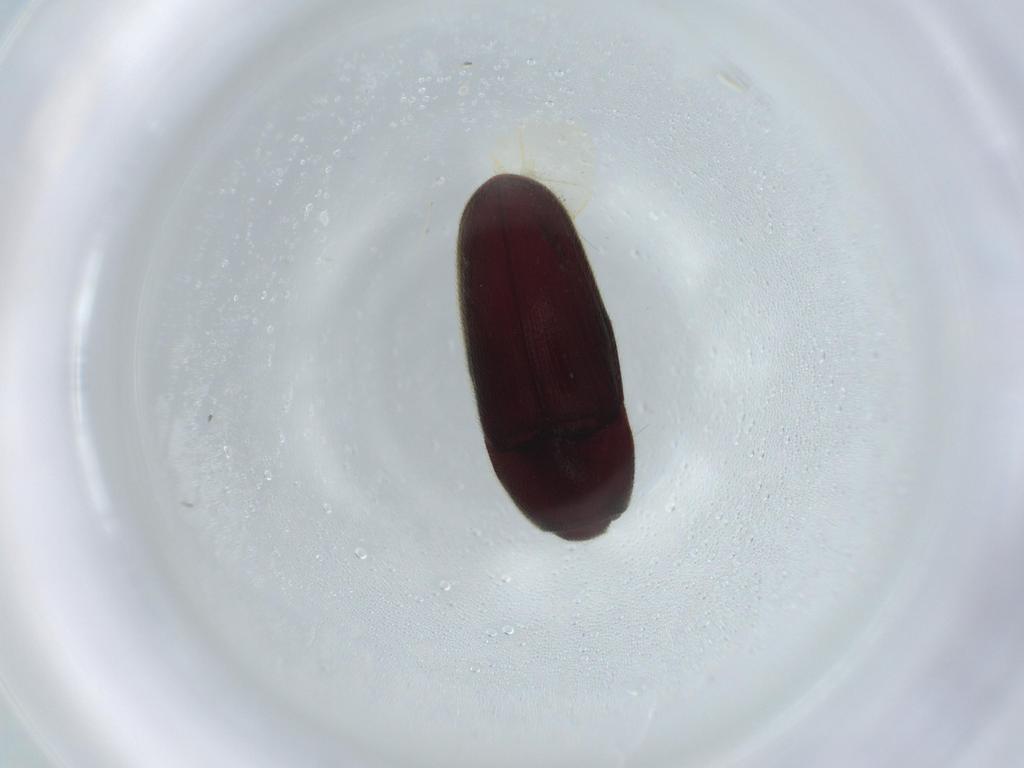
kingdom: Animalia
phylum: Arthropoda
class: Insecta
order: Coleoptera
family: Throscidae
